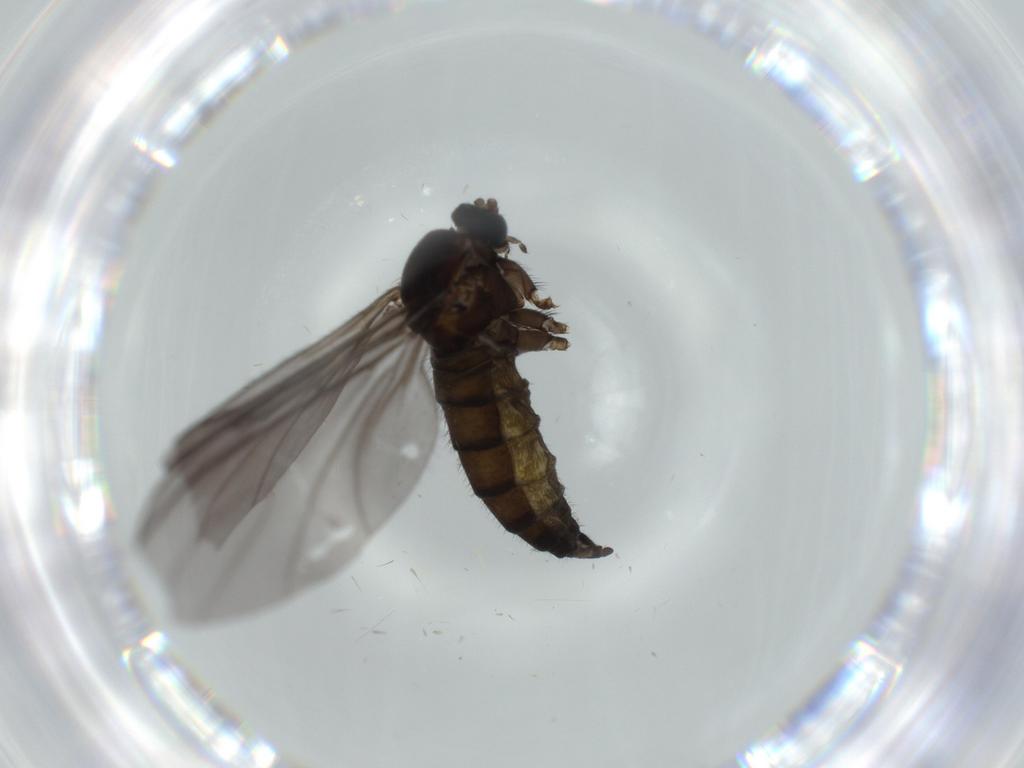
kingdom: Animalia
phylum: Arthropoda
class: Insecta
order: Diptera
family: Sciaridae
